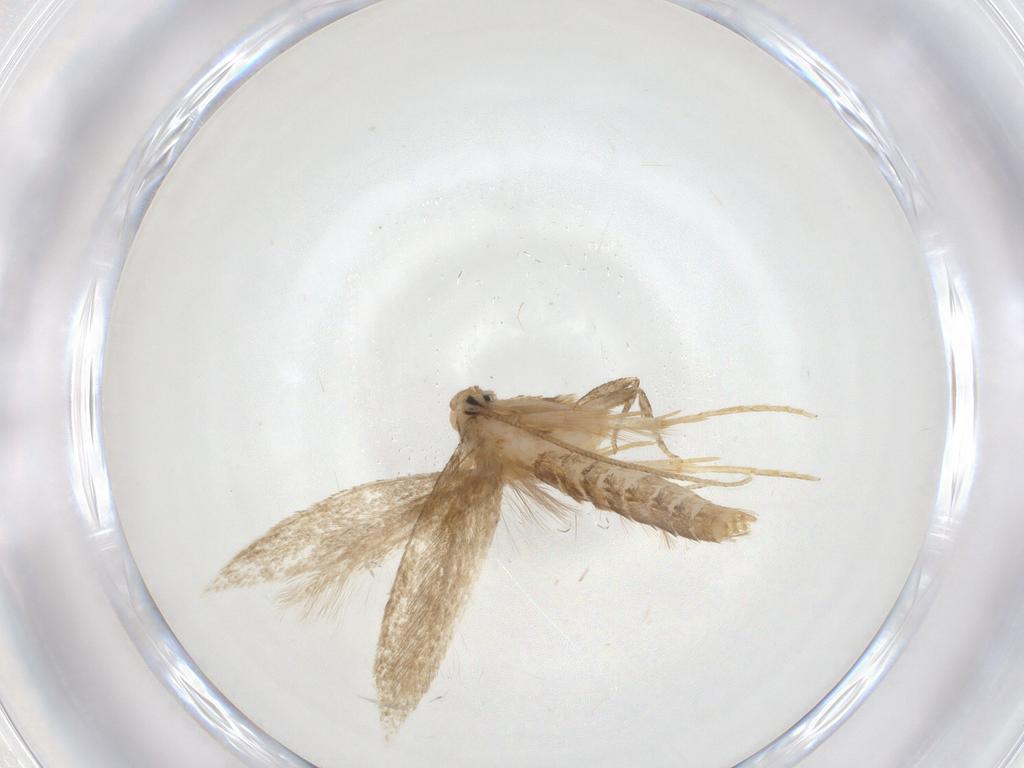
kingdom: Animalia
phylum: Arthropoda
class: Insecta
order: Lepidoptera
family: Tineidae
